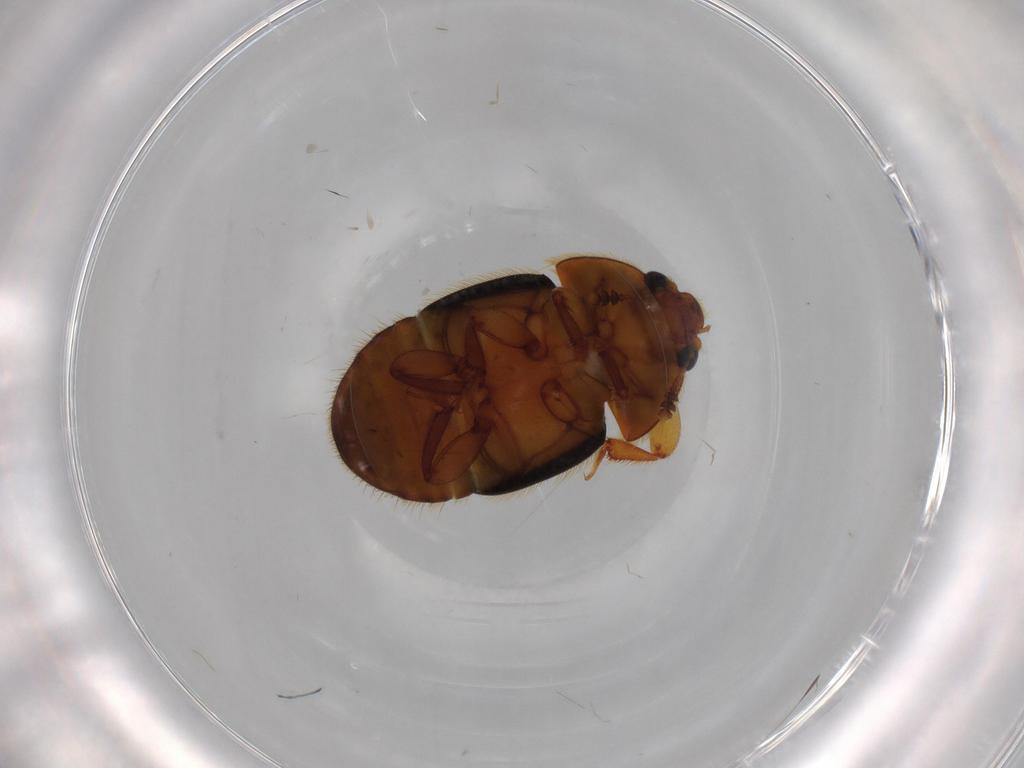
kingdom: Animalia
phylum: Arthropoda
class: Insecta
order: Coleoptera
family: Nitidulidae
